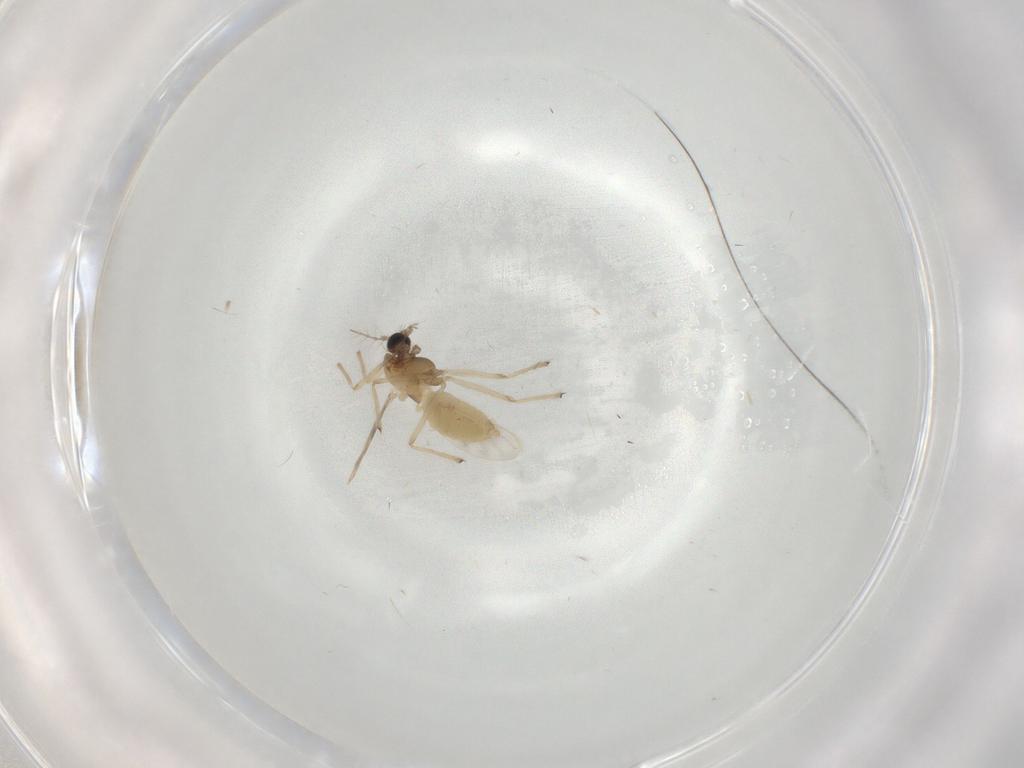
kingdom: Animalia
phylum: Arthropoda
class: Insecta
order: Diptera
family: Chironomidae
